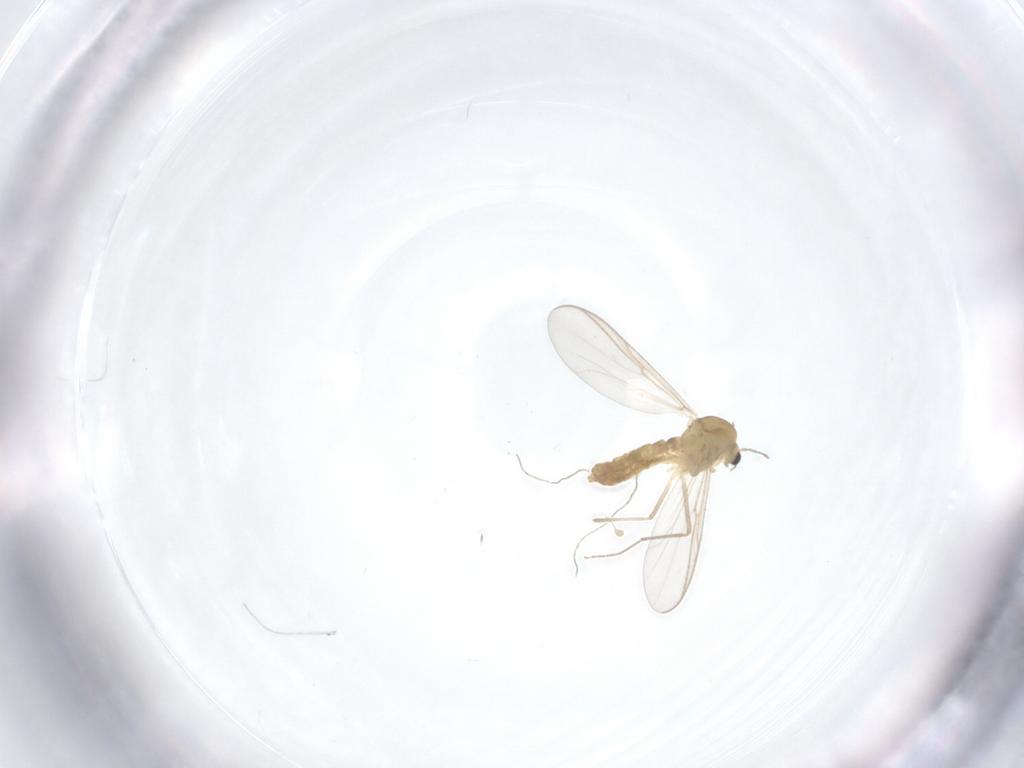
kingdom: Animalia
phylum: Arthropoda
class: Insecta
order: Diptera
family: Chironomidae
